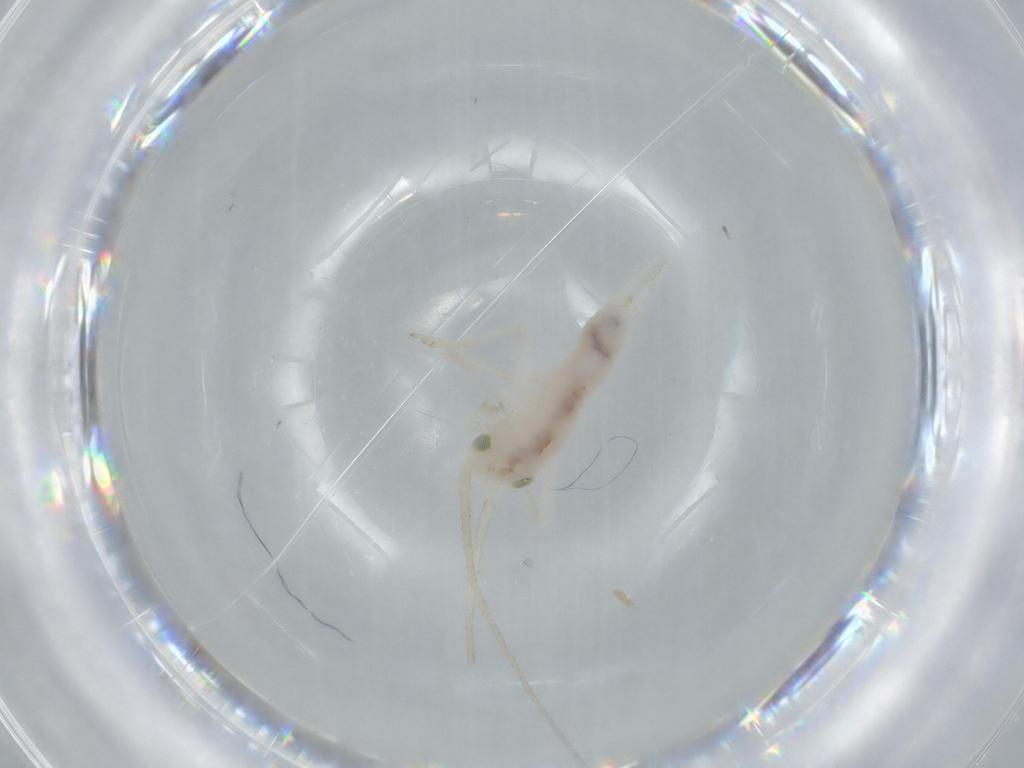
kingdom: Animalia
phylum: Arthropoda
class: Insecta
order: Orthoptera
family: Trigonidiidae
